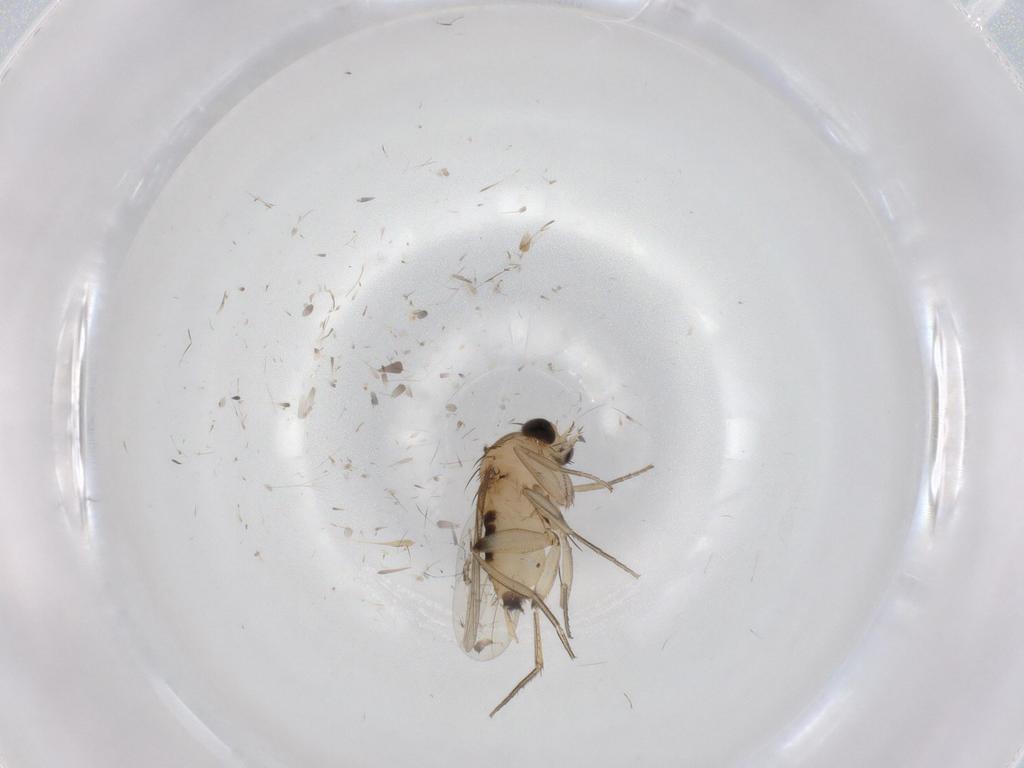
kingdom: Animalia
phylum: Arthropoda
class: Insecta
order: Diptera
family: Phoridae
